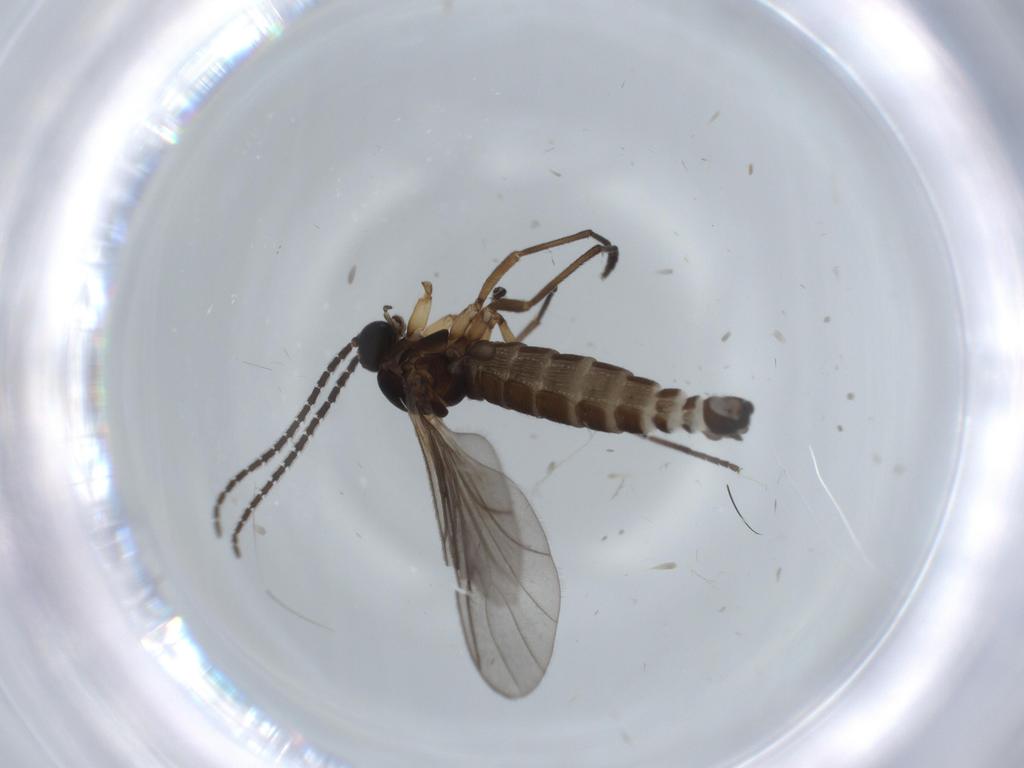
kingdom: Animalia
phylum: Arthropoda
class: Insecta
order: Diptera
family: Sciaridae
